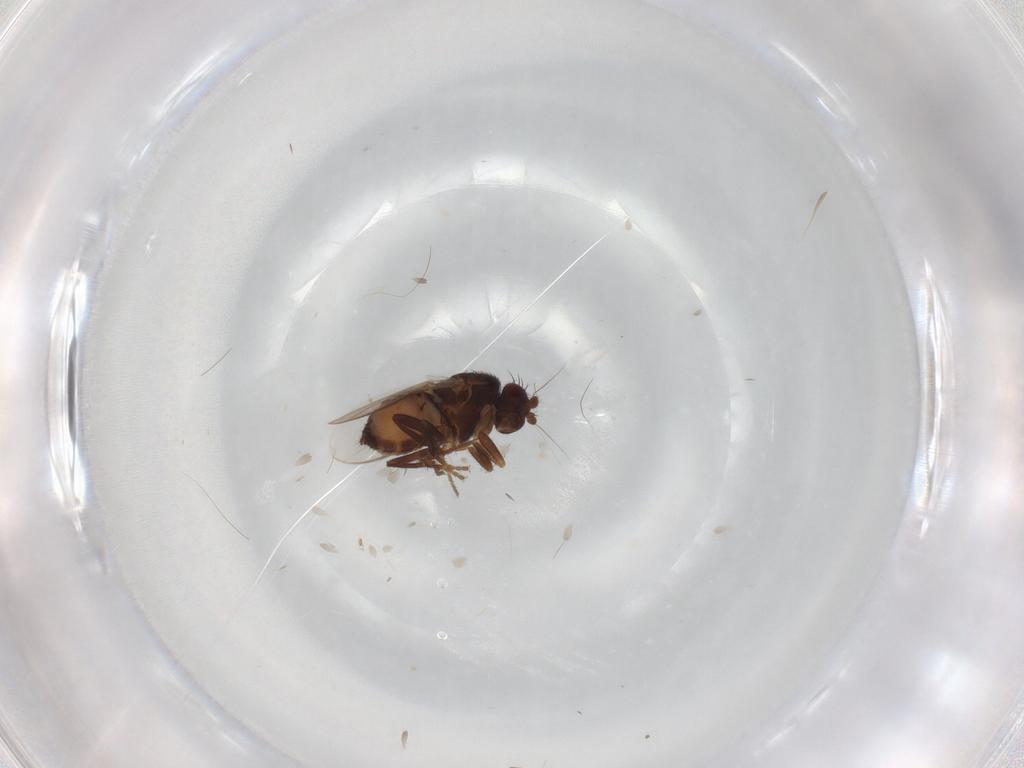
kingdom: Animalia
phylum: Arthropoda
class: Insecta
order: Diptera
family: Cecidomyiidae
